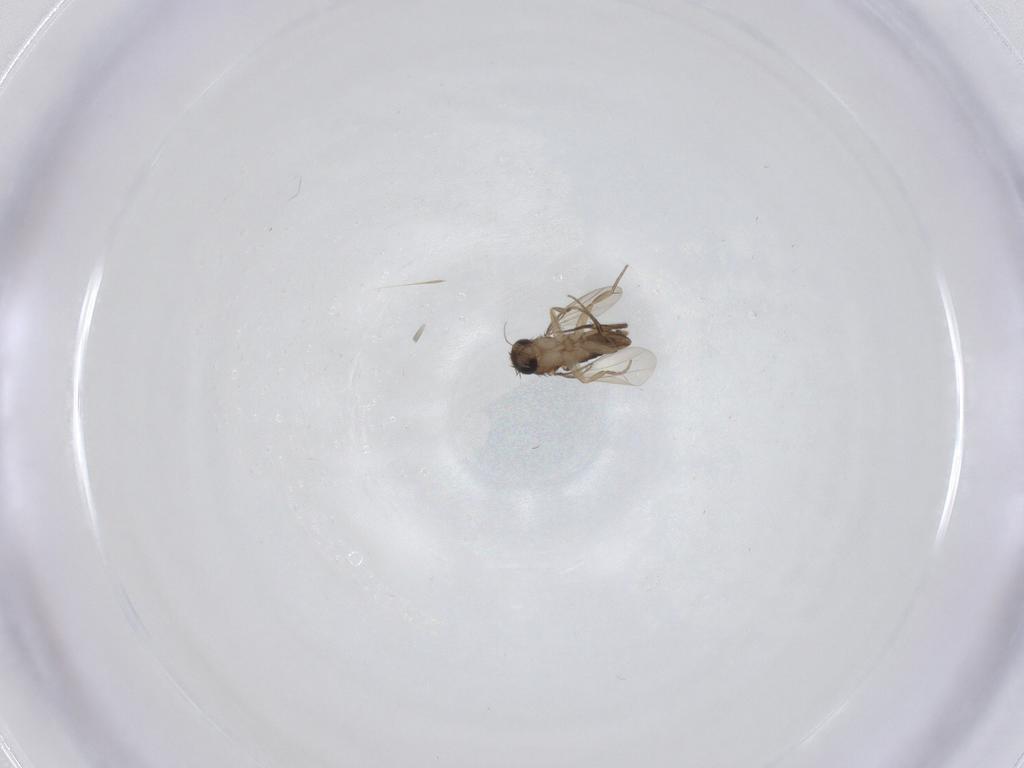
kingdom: Animalia
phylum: Arthropoda
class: Insecta
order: Diptera
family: Phoridae
